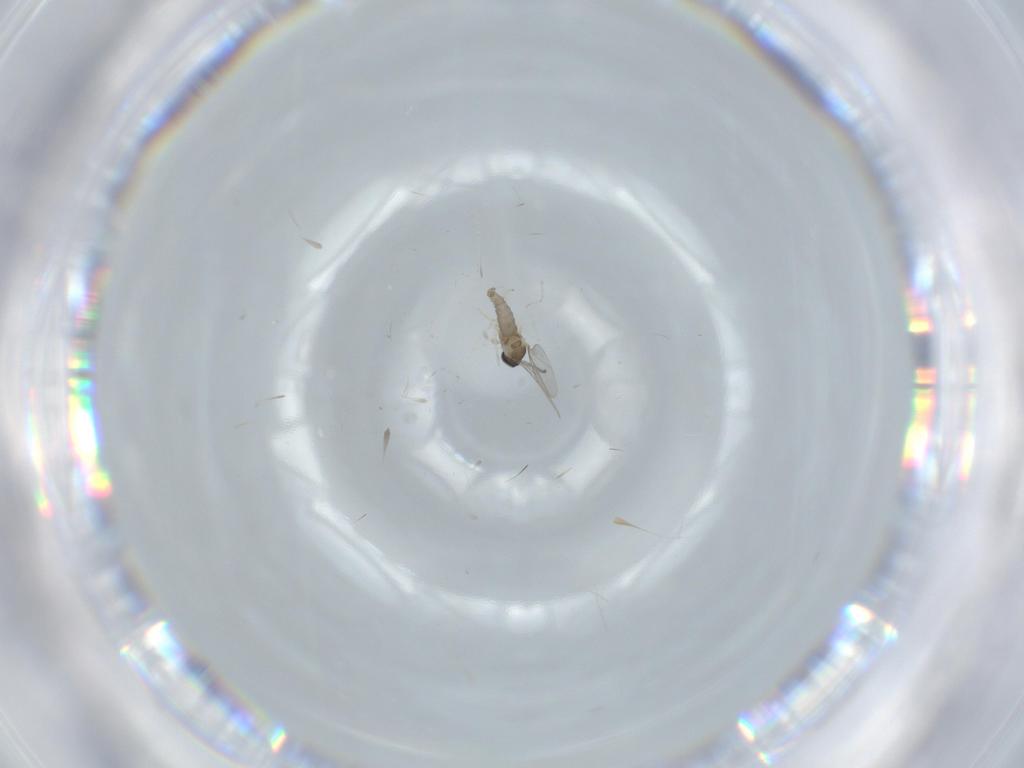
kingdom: Animalia
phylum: Arthropoda
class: Insecta
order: Diptera
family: Cecidomyiidae
